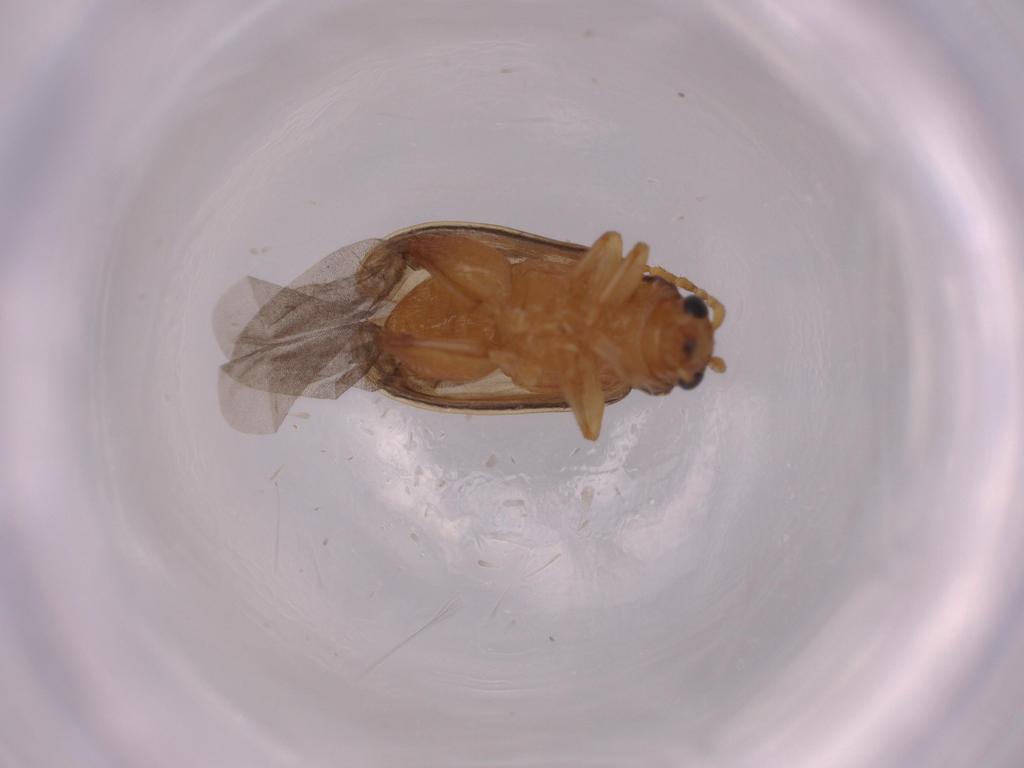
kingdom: Animalia
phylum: Arthropoda
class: Insecta
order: Coleoptera
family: Chrysomelidae
